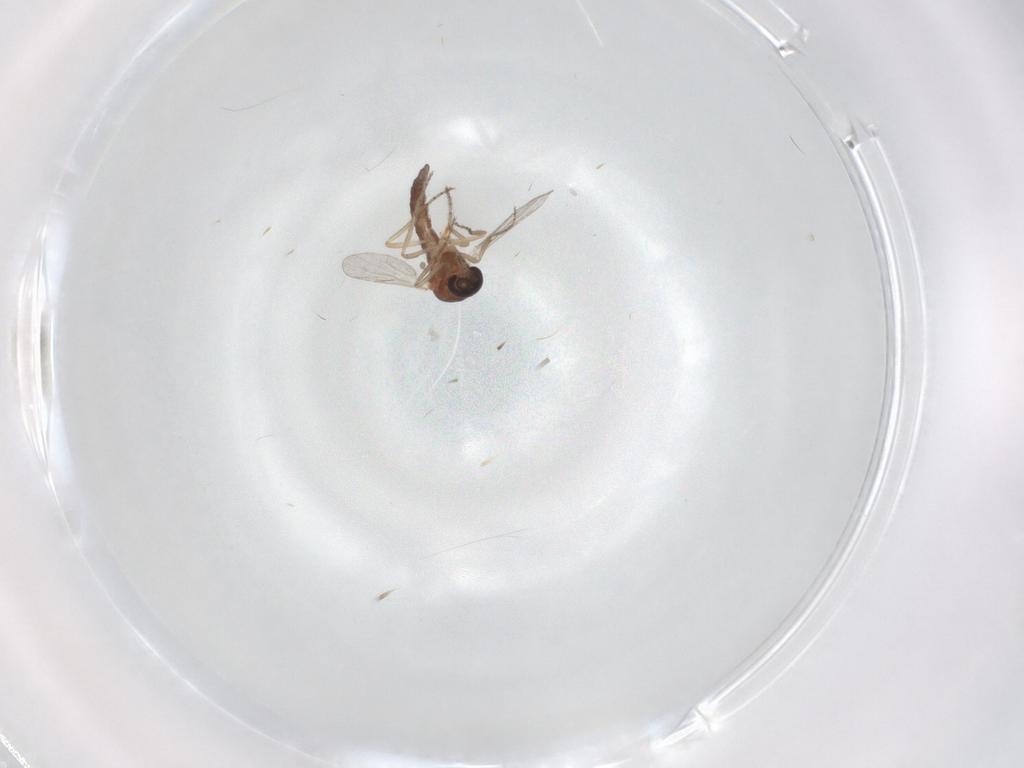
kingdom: Animalia
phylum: Arthropoda
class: Insecta
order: Diptera
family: Ceratopogonidae
